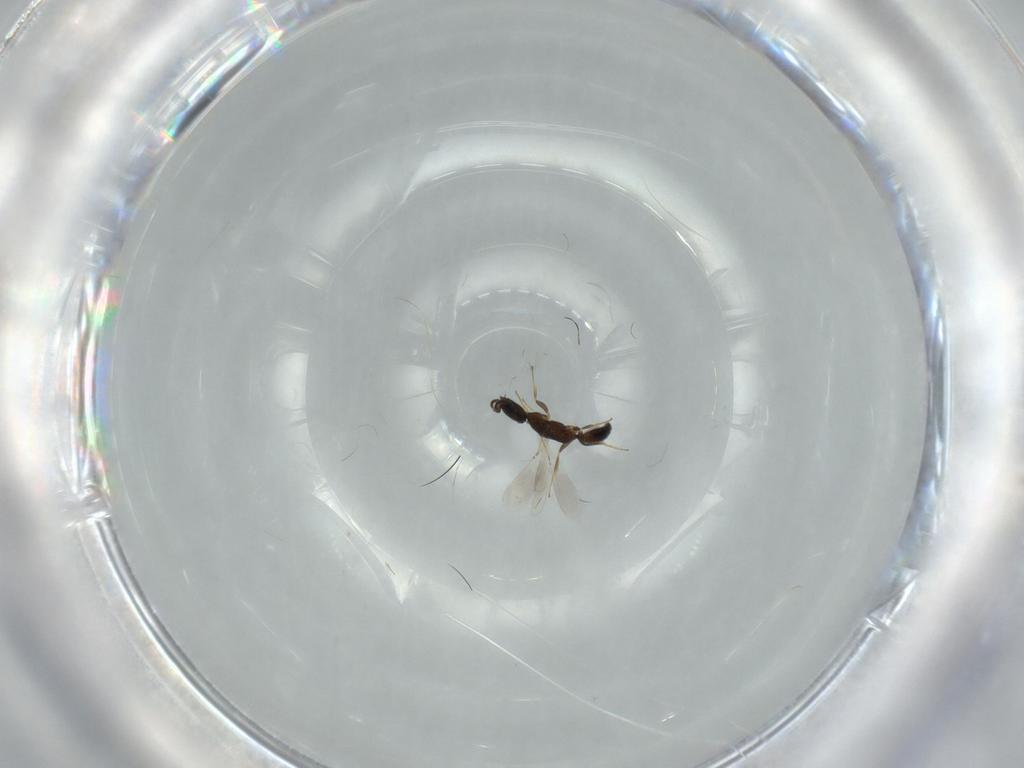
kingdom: Animalia
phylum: Arthropoda
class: Insecta
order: Hymenoptera
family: Bethylidae
